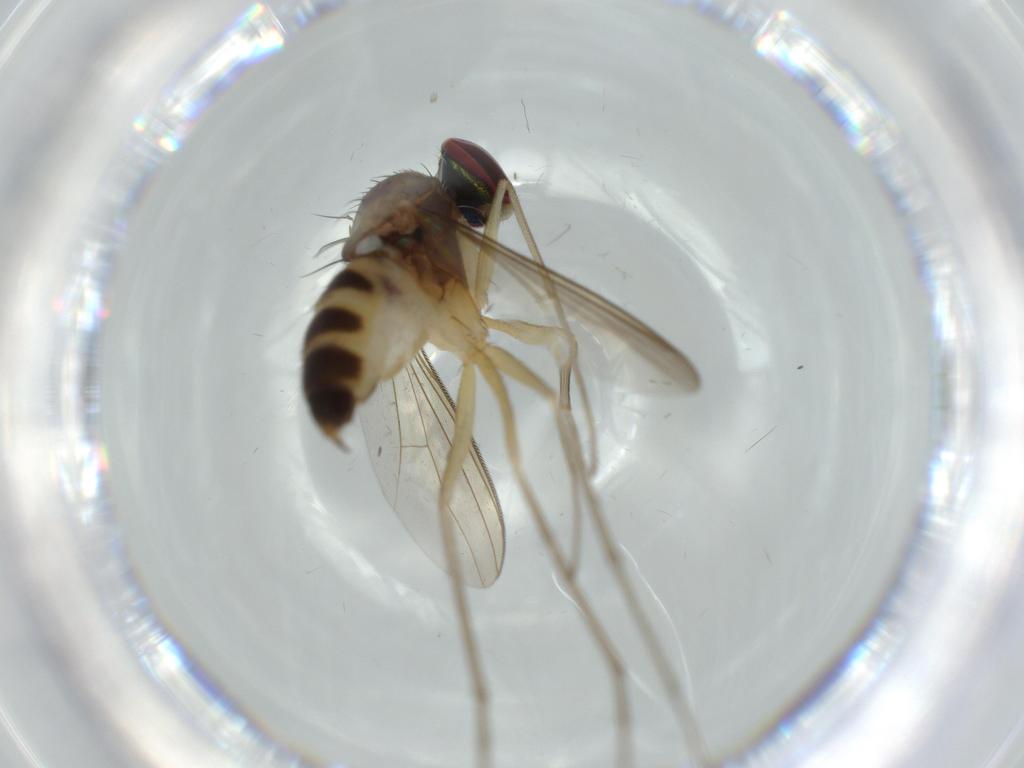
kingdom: Animalia
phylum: Arthropoda
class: Insecta
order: Diptera
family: Dolichopodidae
